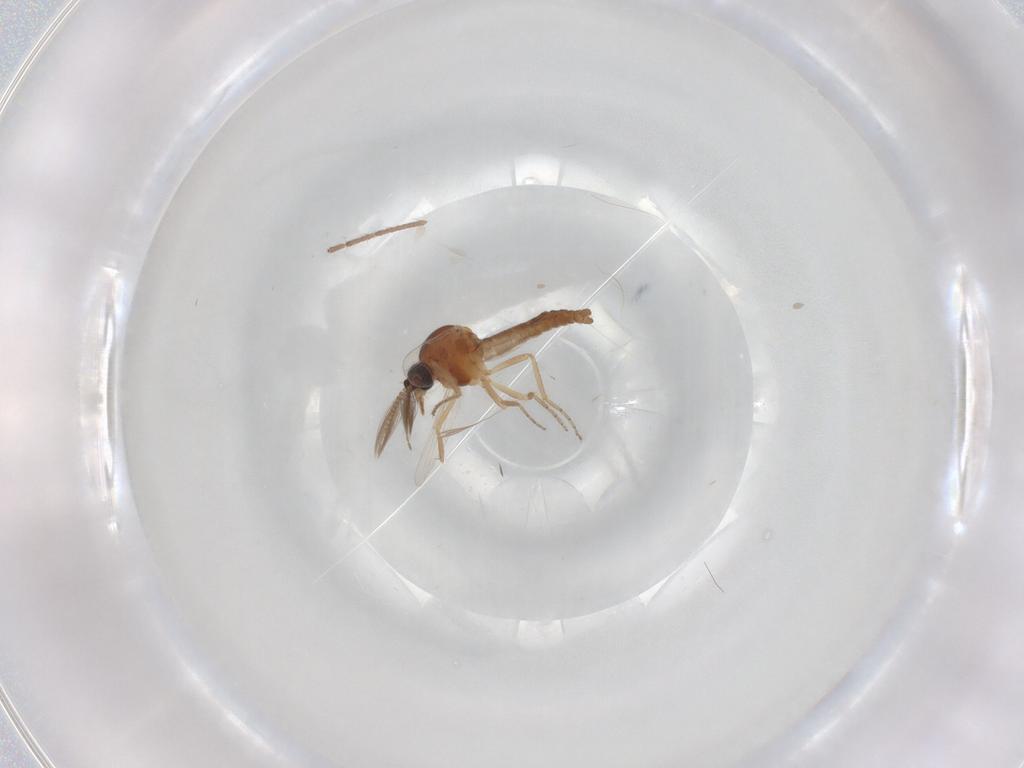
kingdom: Animalia
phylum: Arthropoda
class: Insecta
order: Diptera
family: Ceratopogonidae
